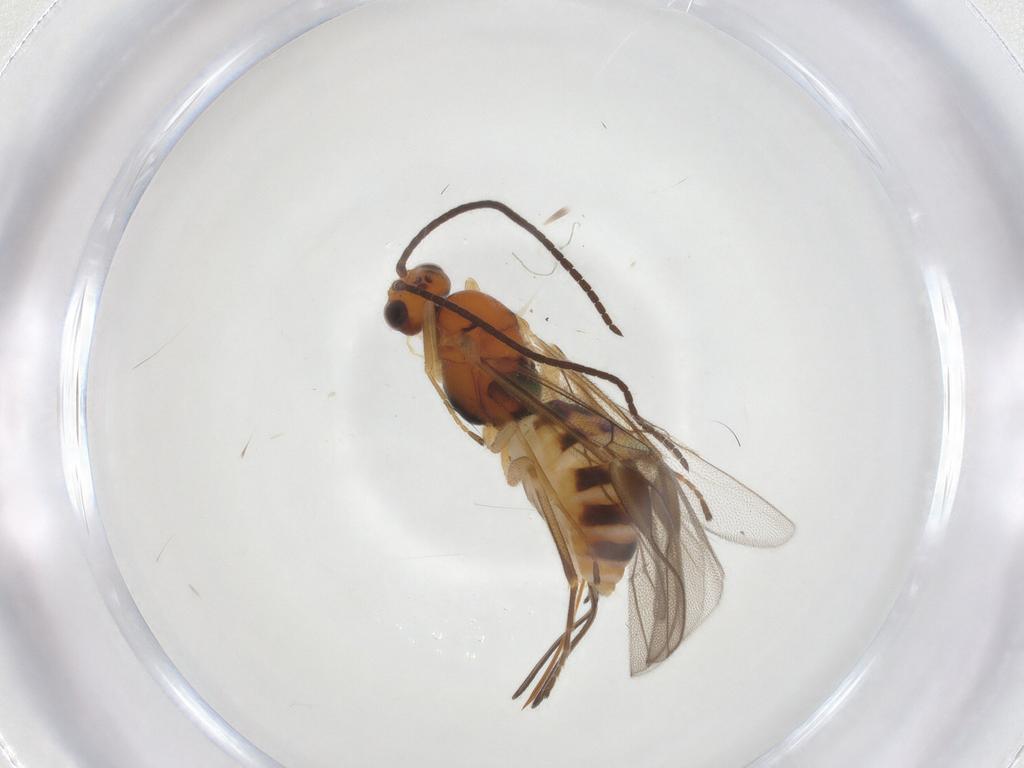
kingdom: Animalia
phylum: Arthropoda
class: Insecta
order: Hymenoptera
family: Braconidae
